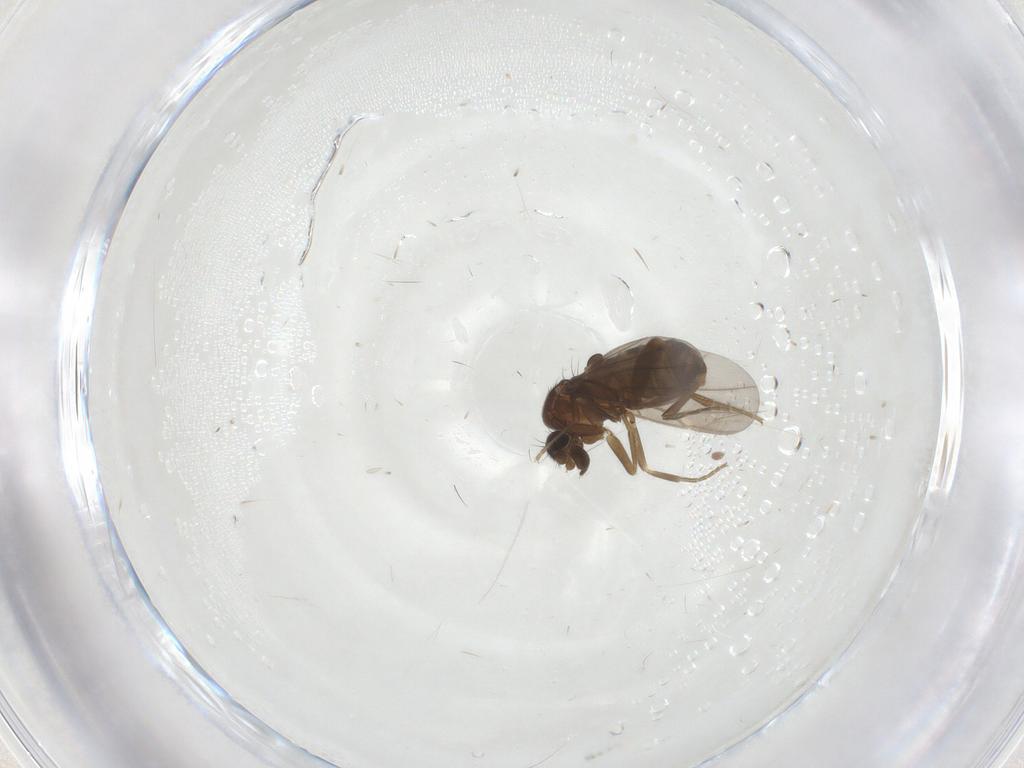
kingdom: Animalia
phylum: Arthropoda
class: Insecta
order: Diptera
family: Phoridae
